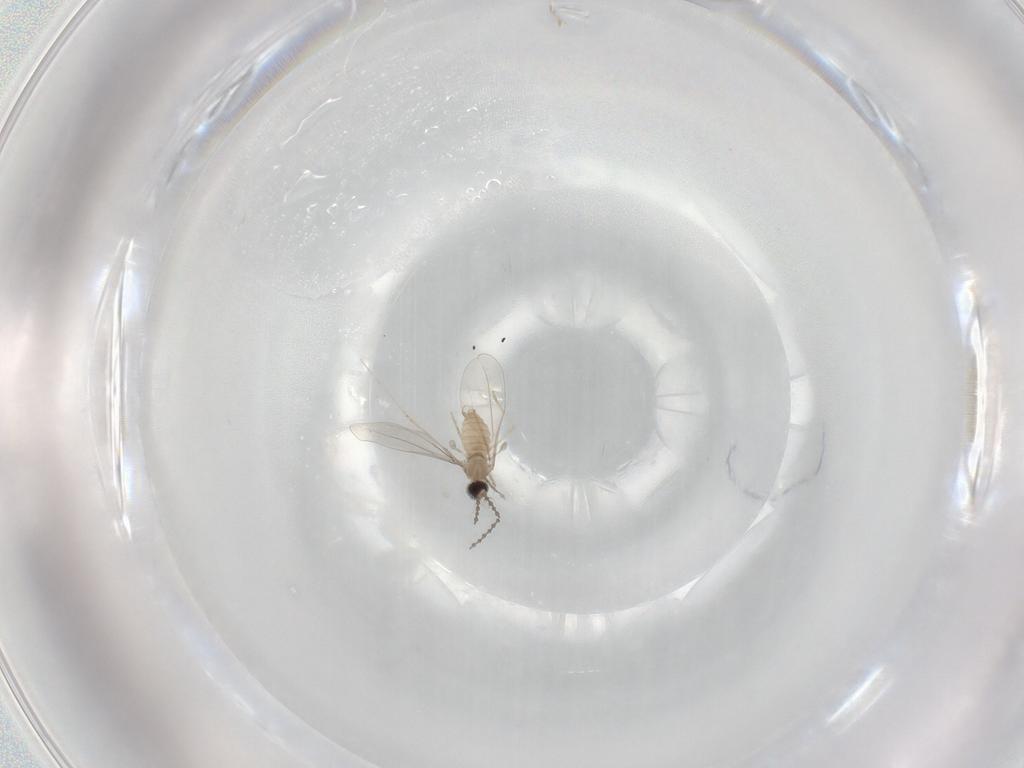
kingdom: Animalia
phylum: Arthropoda
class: Insecta
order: Diptera
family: Cecidomyiidae
